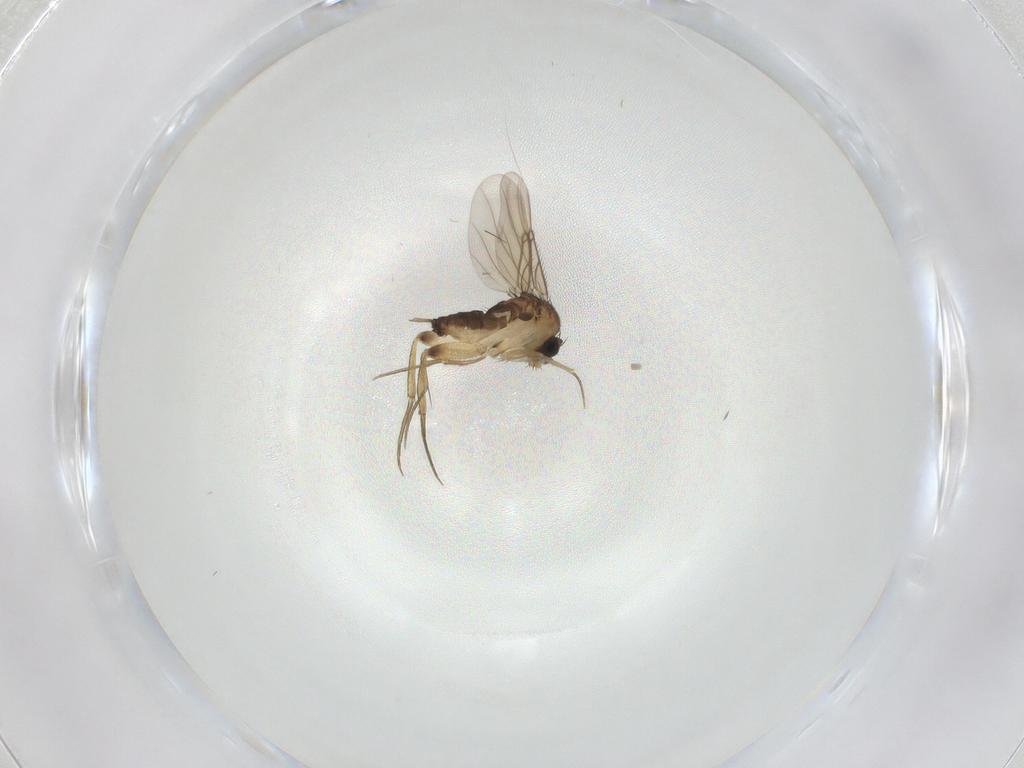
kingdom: Animalia
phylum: Arthropoda
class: Insecta
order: Diptera
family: Phoridae
